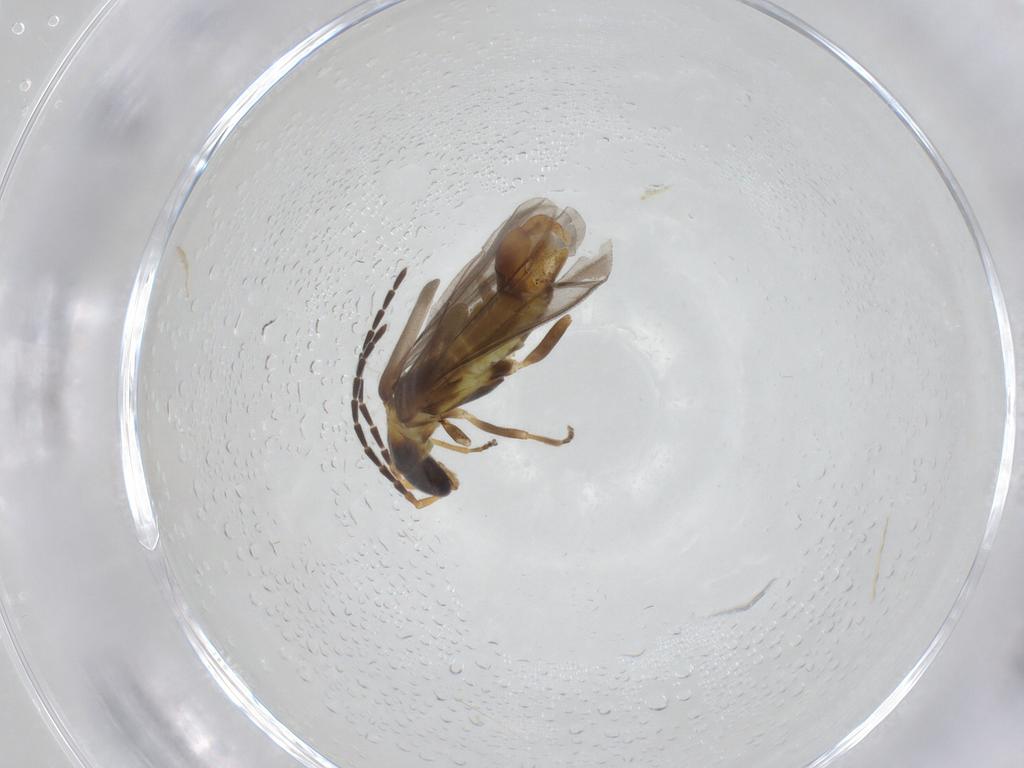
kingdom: Animalia
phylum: Arthropoda
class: Insecta
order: Coleoptera
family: Cantharidae
